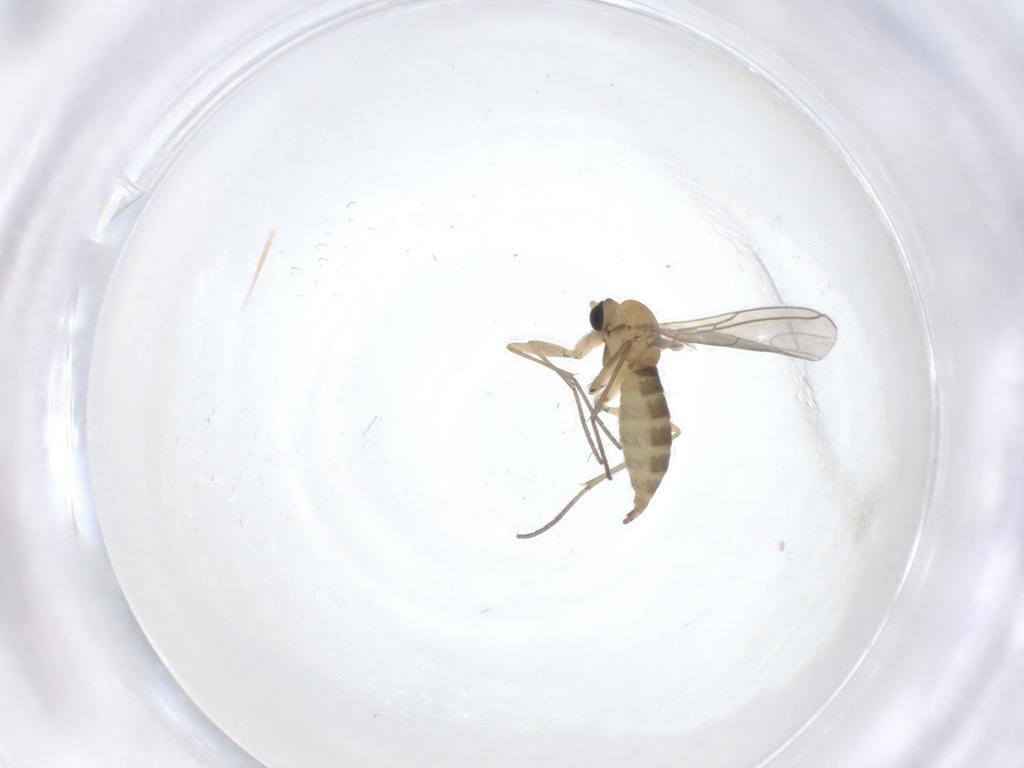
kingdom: Animalia
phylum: Arthropoda
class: Insecta
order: Diptera
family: Sciaridae
